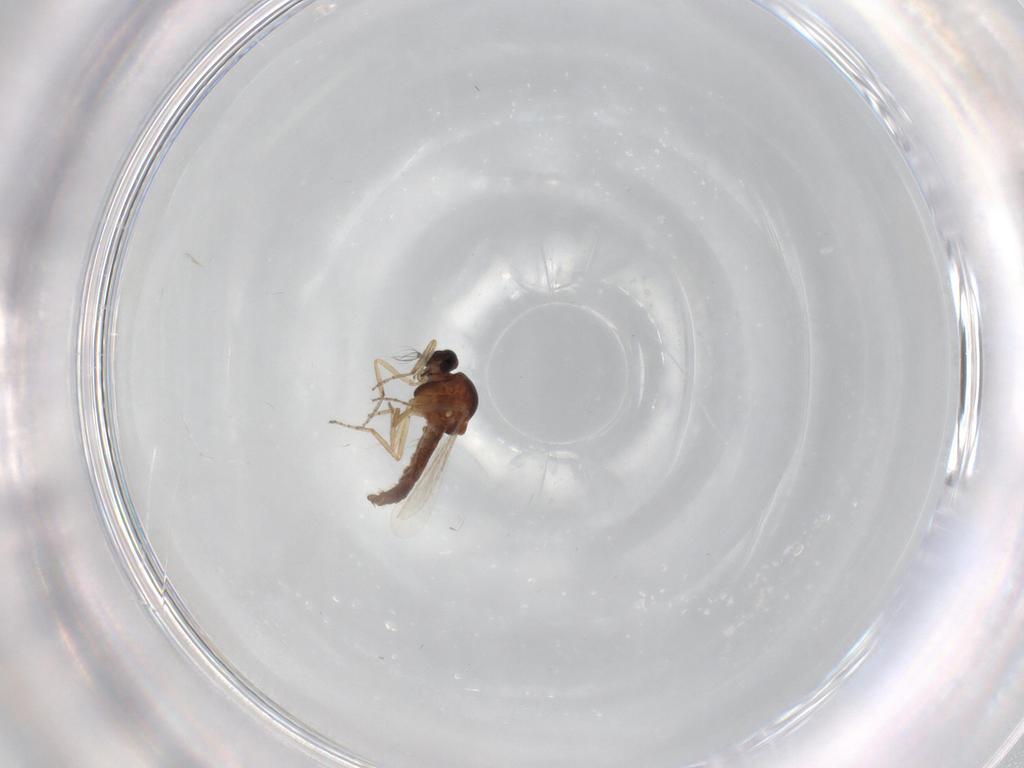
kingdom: Animalia
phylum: Arthropoda
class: Insecta
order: Diptera
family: Ceratopogonidae
